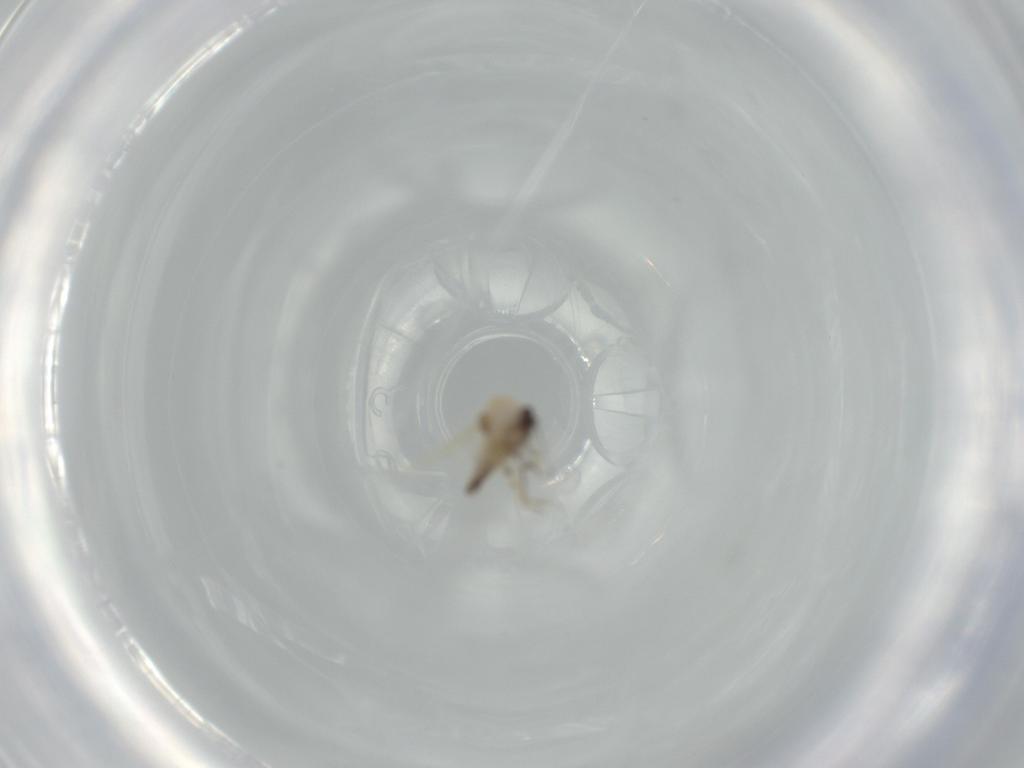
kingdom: Animalia
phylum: Arthropoda
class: Insecta
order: Diptera
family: Ceratopogonidae
